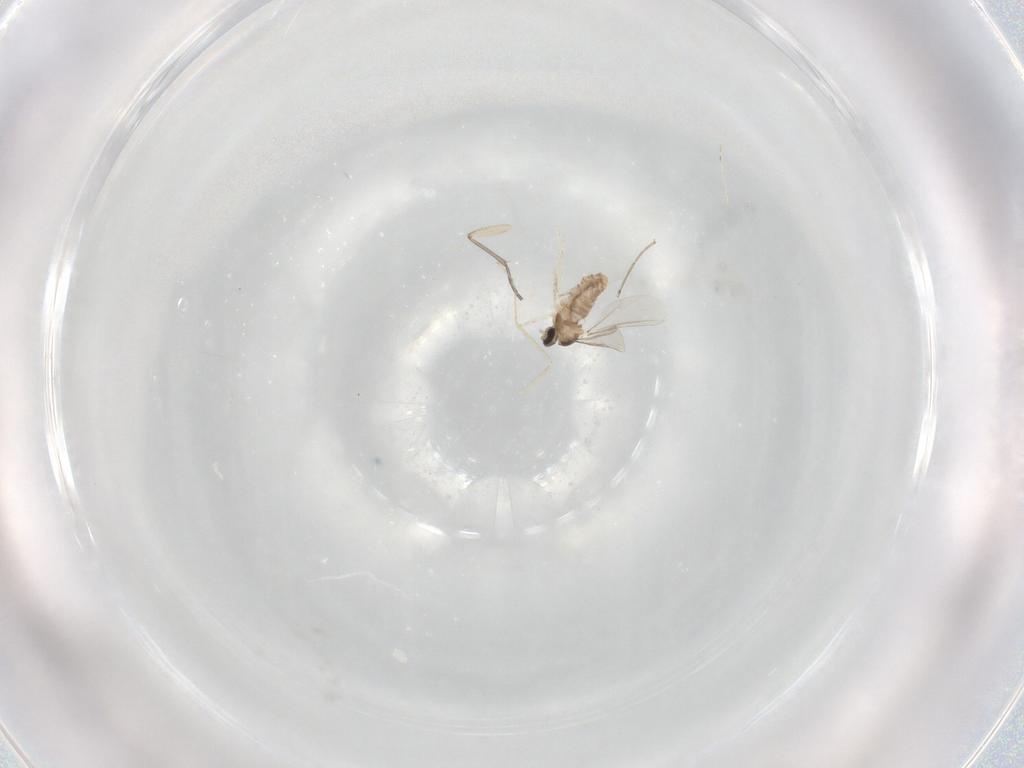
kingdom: Animalia
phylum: Arthropoda
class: Insecta
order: Diptera
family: Cecidomyiidae
